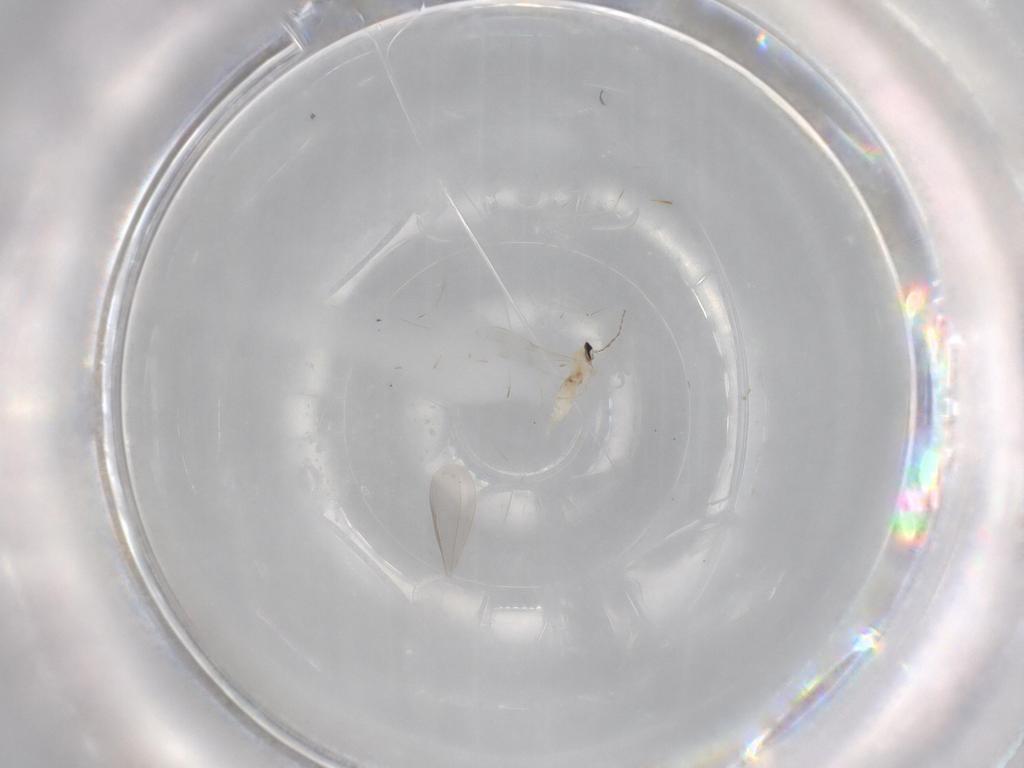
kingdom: Animalia
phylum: Arthropoda
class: Insecta
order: Diptera
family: Cecidomyiidae
